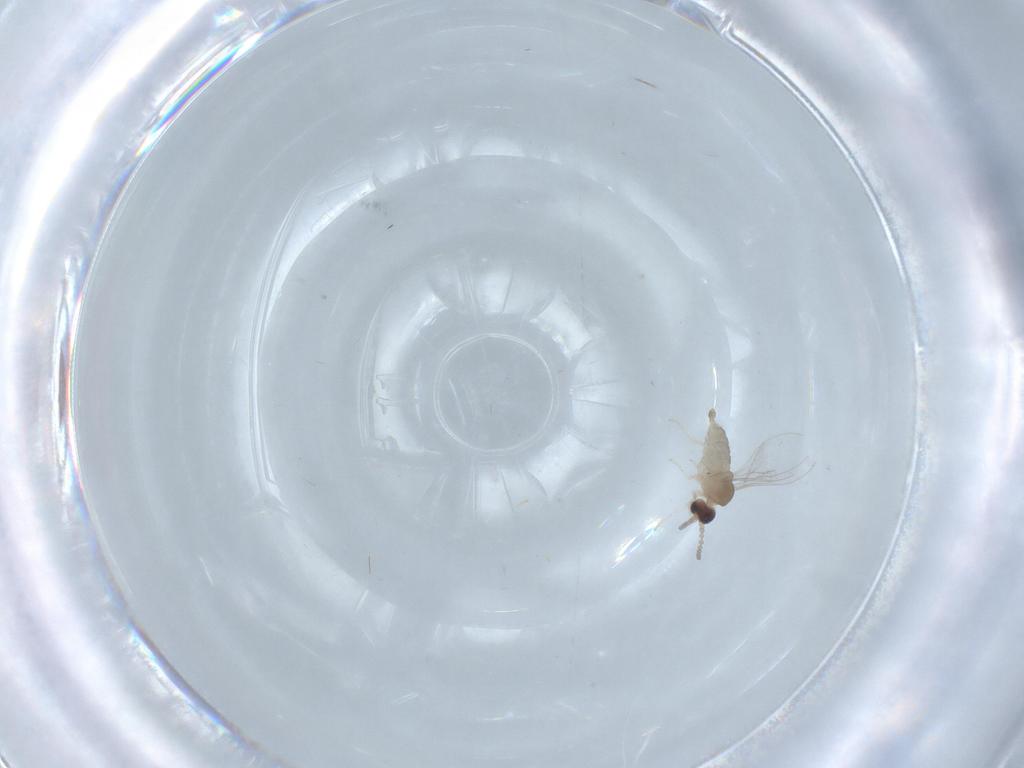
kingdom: Animalia
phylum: Arthropoda
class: Insecta
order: Diptera
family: Cecidomyiidae
